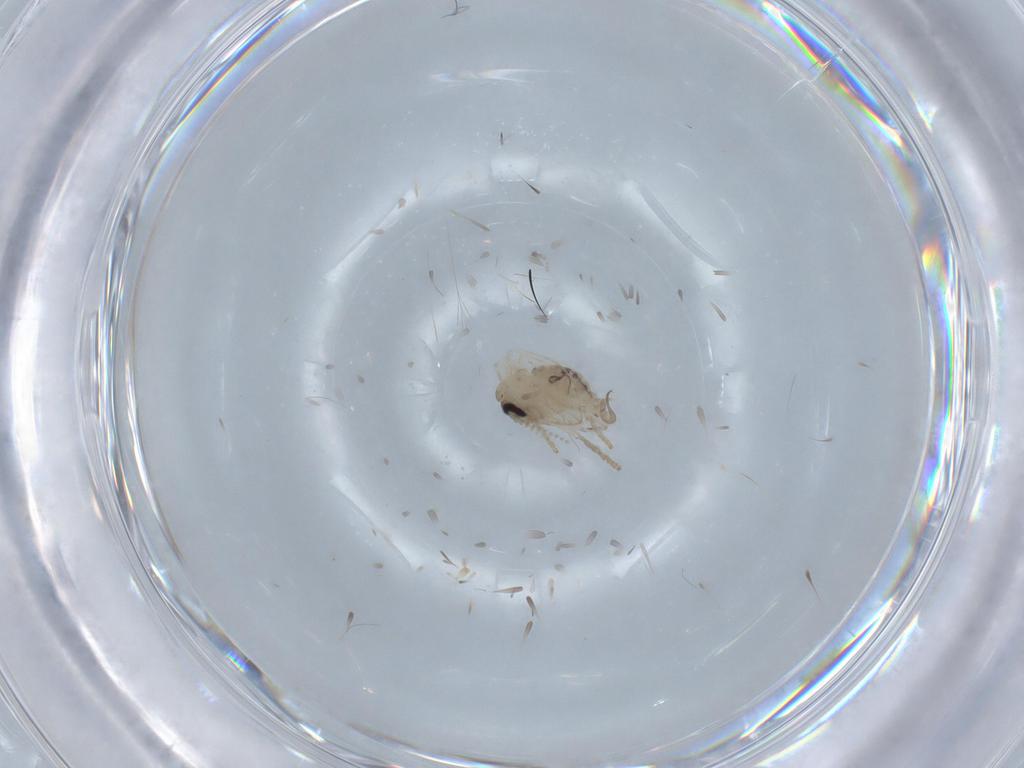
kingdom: Animalia
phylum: Arthropoda
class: Insecta
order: Diptera
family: Psychodidae
